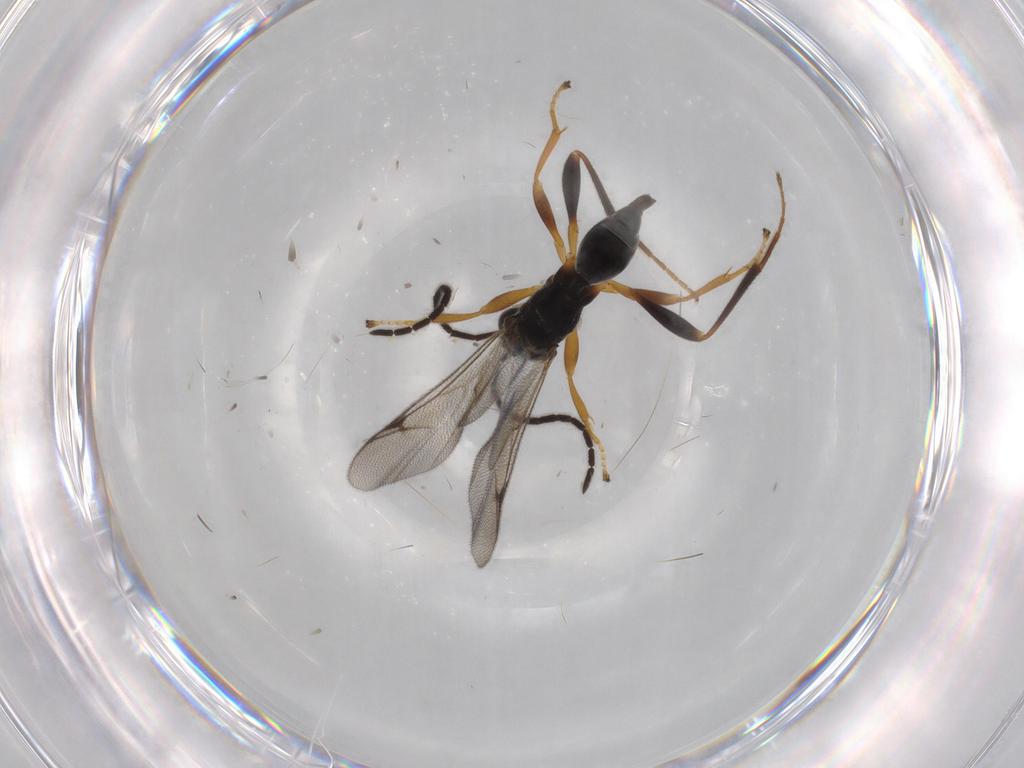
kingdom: Animalia
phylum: Arthropoda
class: Insecta
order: Hymenoptera
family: Proctotrupidae
